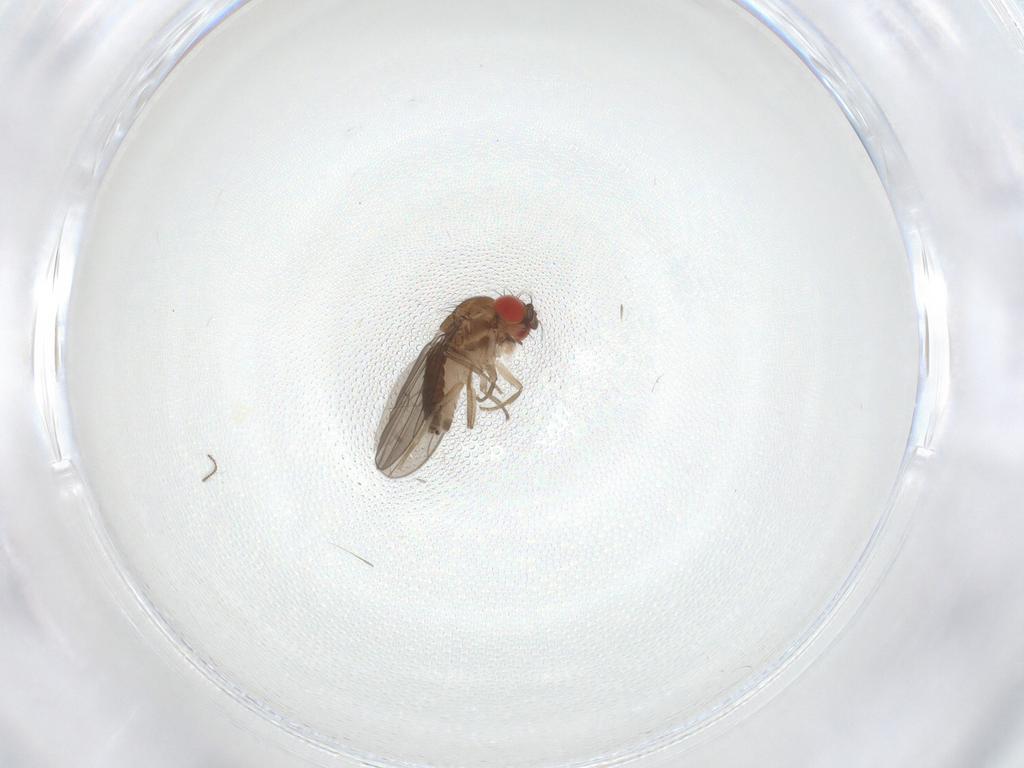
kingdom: Animalia
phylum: Arthropoda
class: Insecta
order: Diptera
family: Drosophilidae
